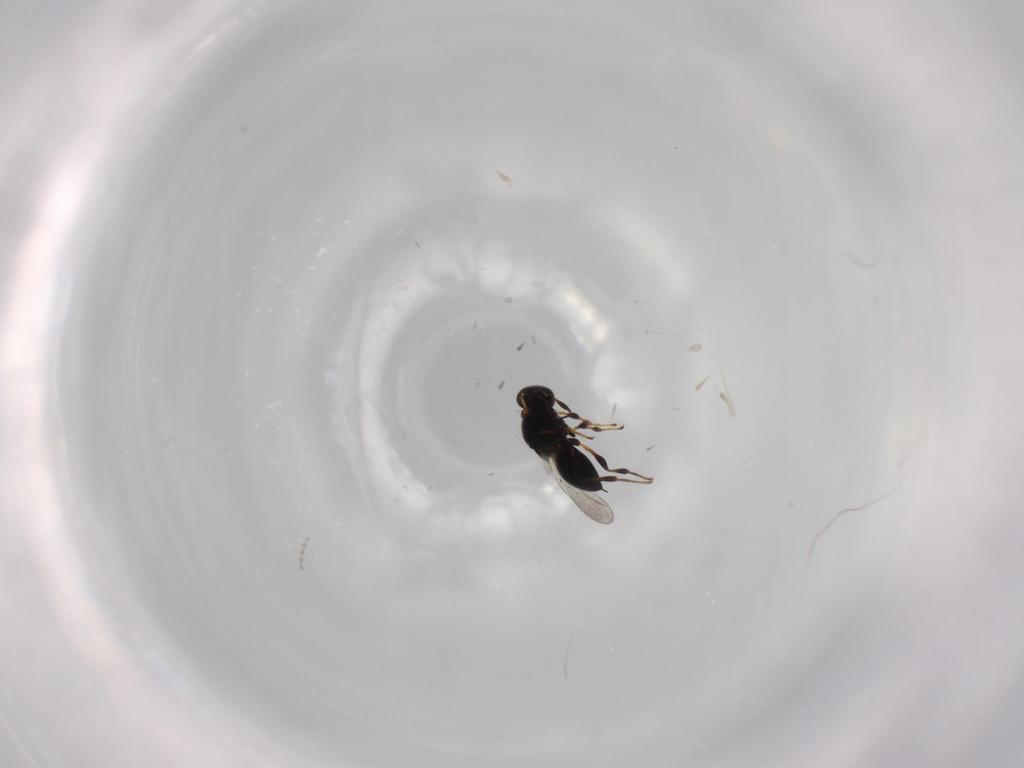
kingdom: Animalia
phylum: Arthropoda
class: Insecta
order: Hymenoptera
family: Platygastridae
